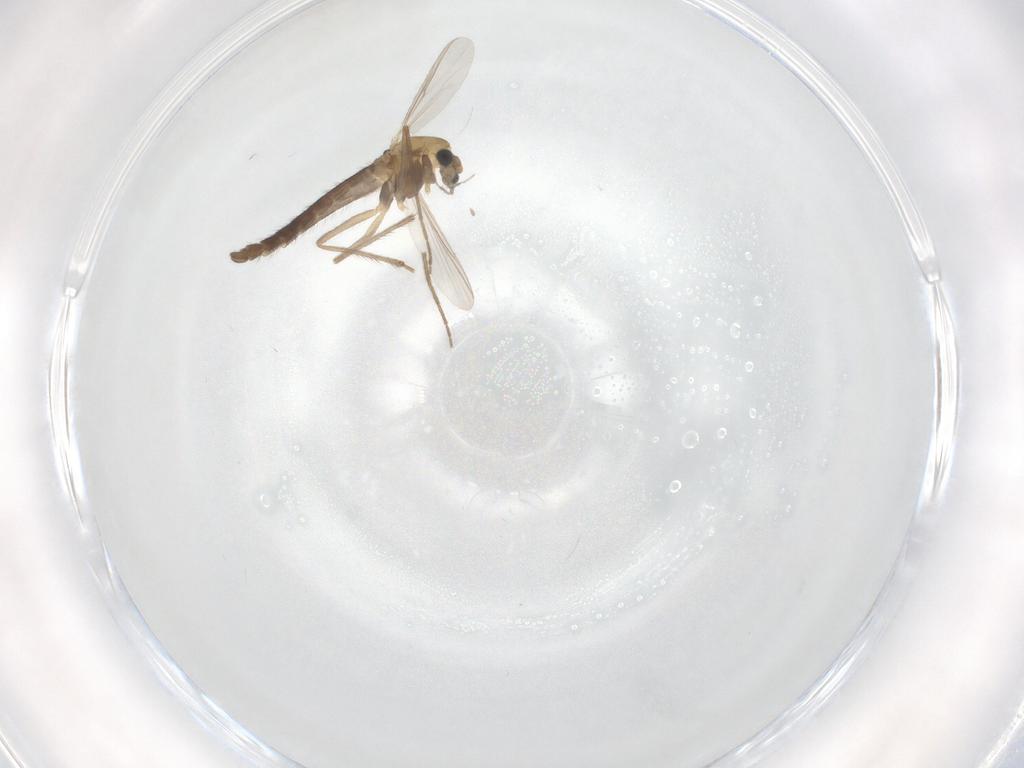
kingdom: Animalia
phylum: Arthropoda
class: Insecta
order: Diptera
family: Chironomidae
